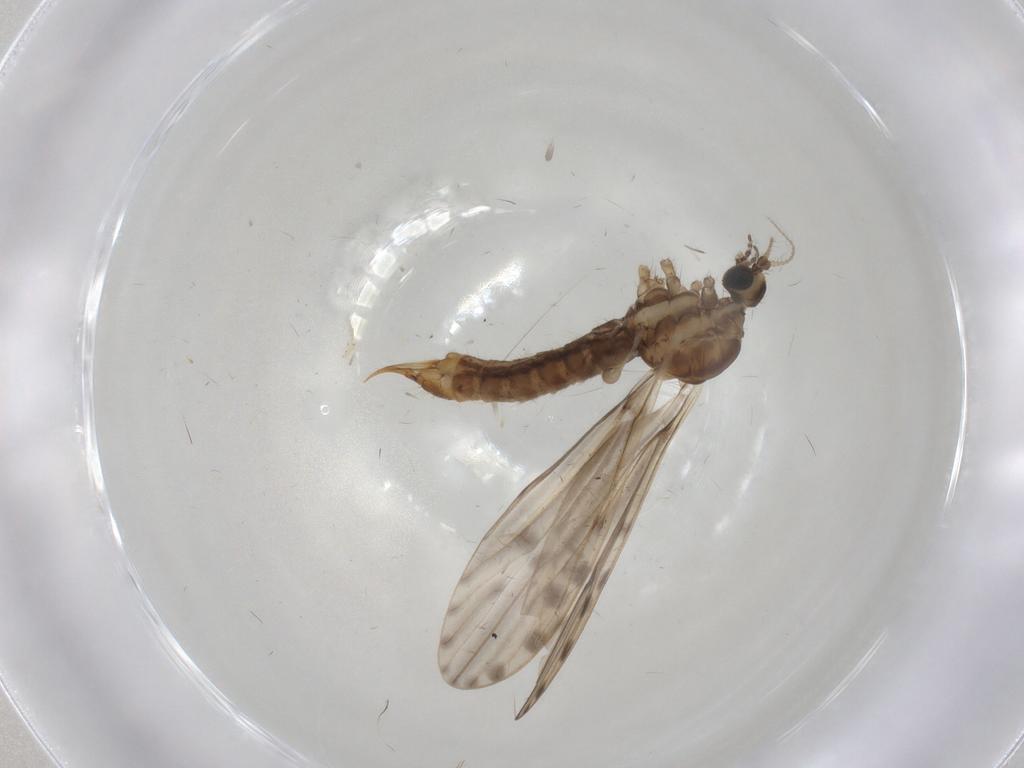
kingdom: Animalia
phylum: Arthropoda
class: Insecta
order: Diptera
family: Limoniidae
